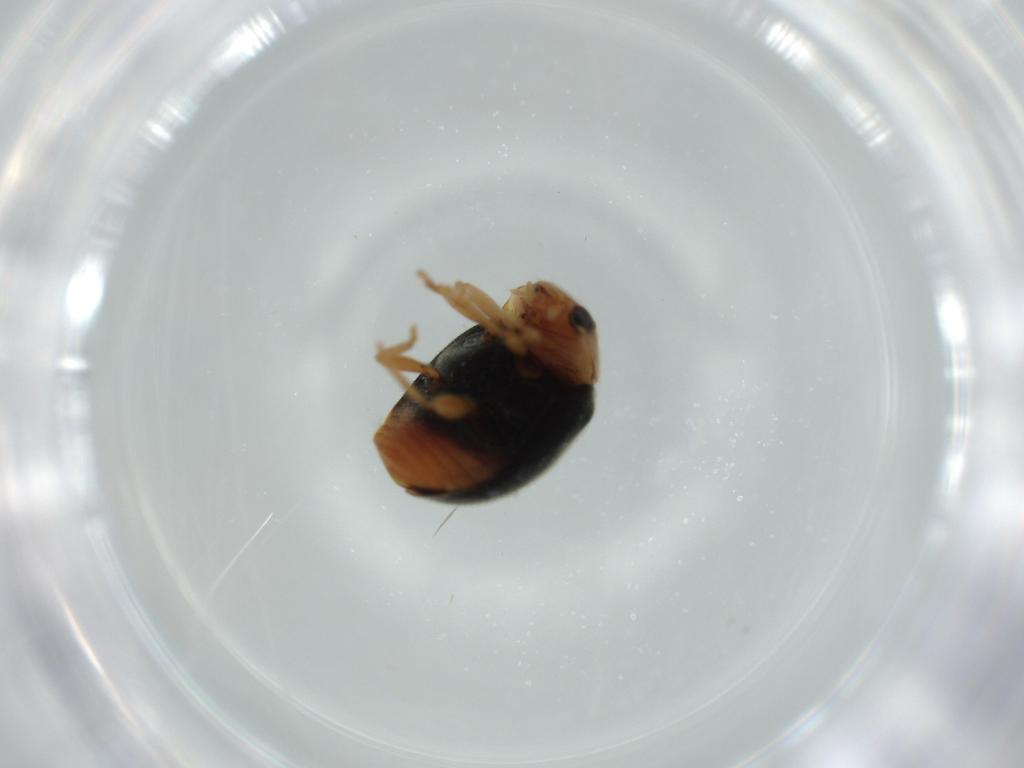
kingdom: Animalia
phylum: Arthropoda
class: Insecta
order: Coleoptera
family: Coccinellidae
